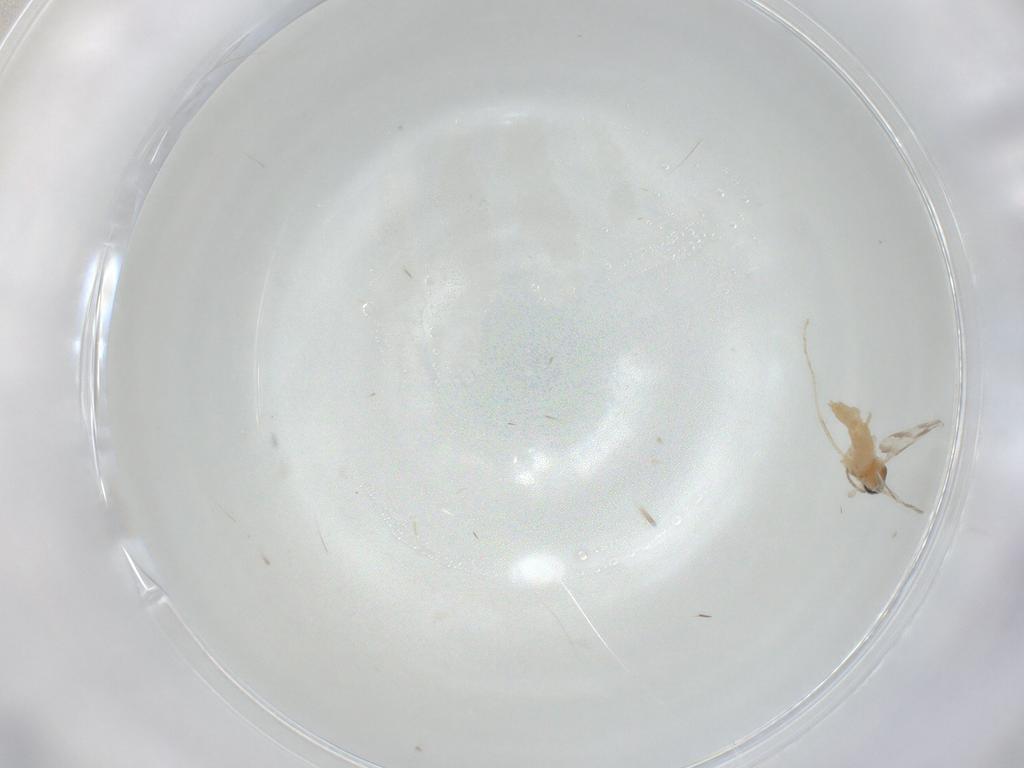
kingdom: Animalia
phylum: Arthropoda
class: Insecta
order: Diptera
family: Cecidomyiidae
